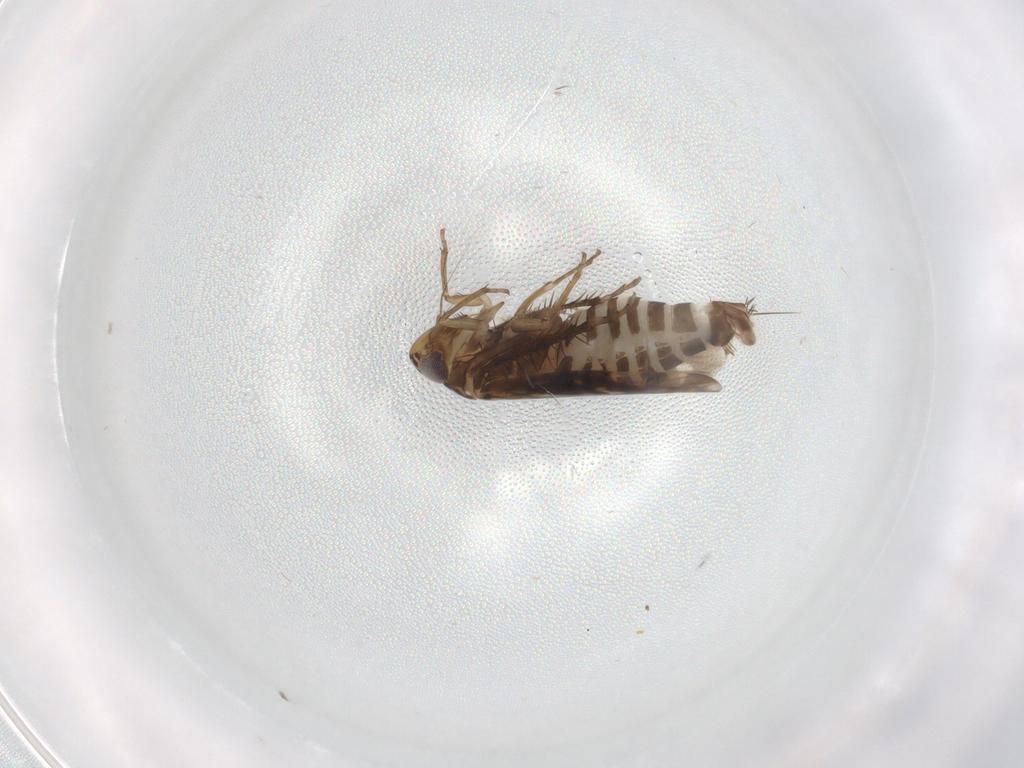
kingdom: Animalia
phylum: Arthropoda
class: Insecta
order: Hemiptera
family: Cicadellidae
